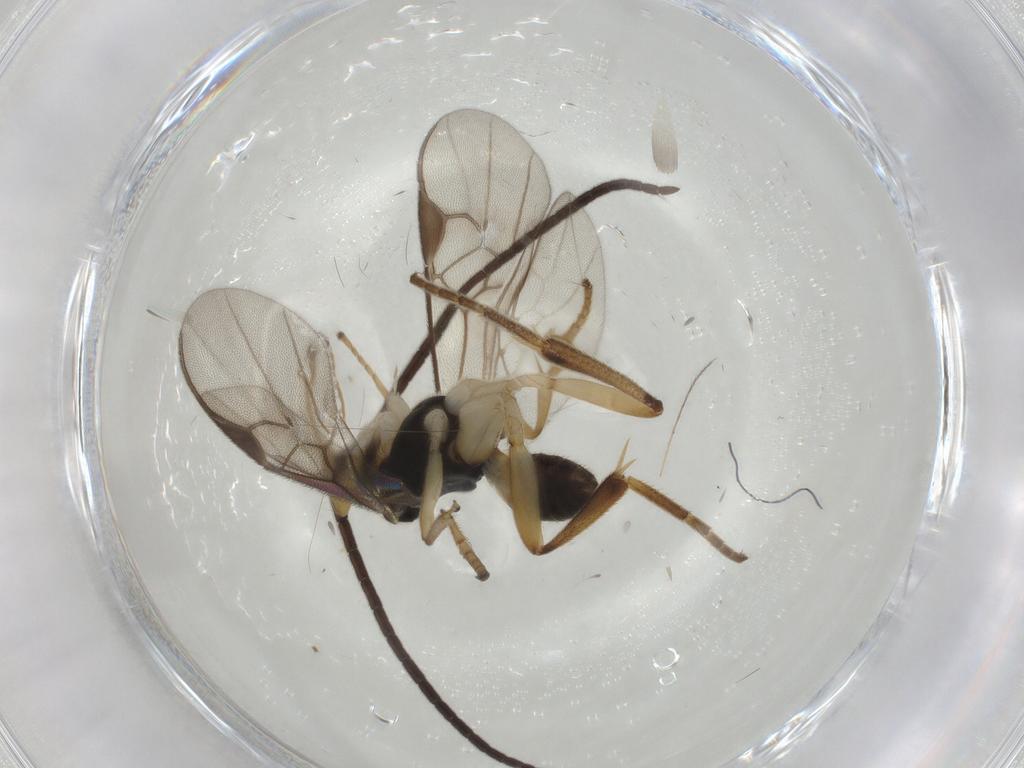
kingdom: Animalia
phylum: Arthropoda
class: Insecta
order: Hymenoptera
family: Braconidae
